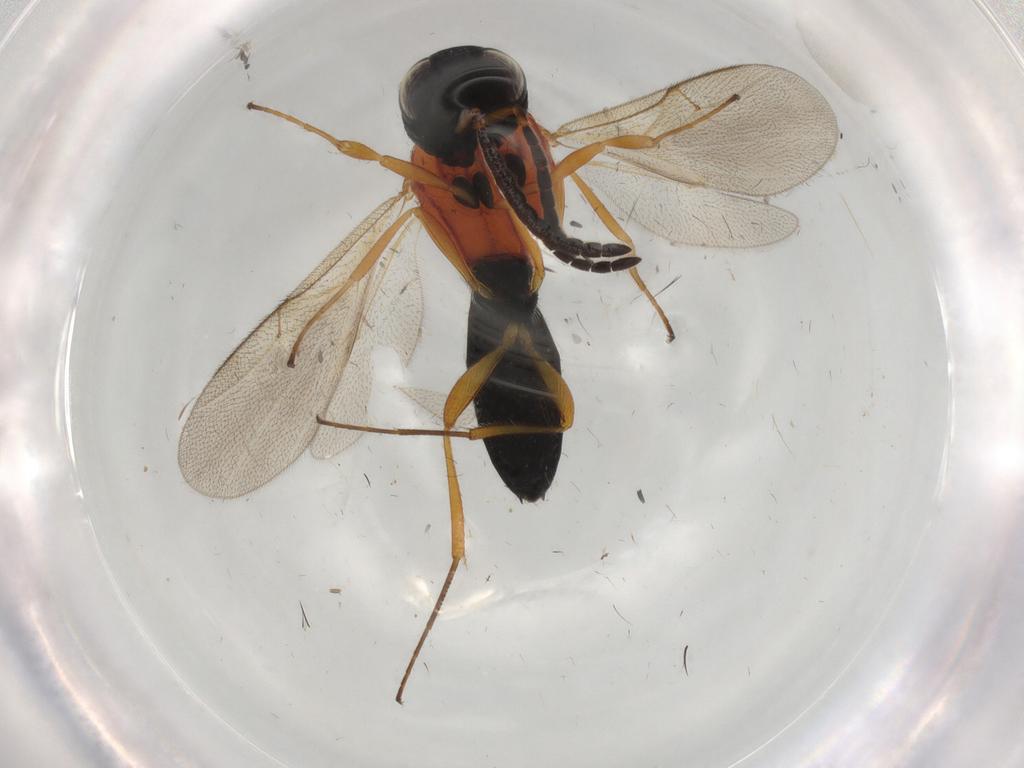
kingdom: Animalia
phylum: Arthropoda
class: Insecta
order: Hymenoptera
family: Scelionidae
